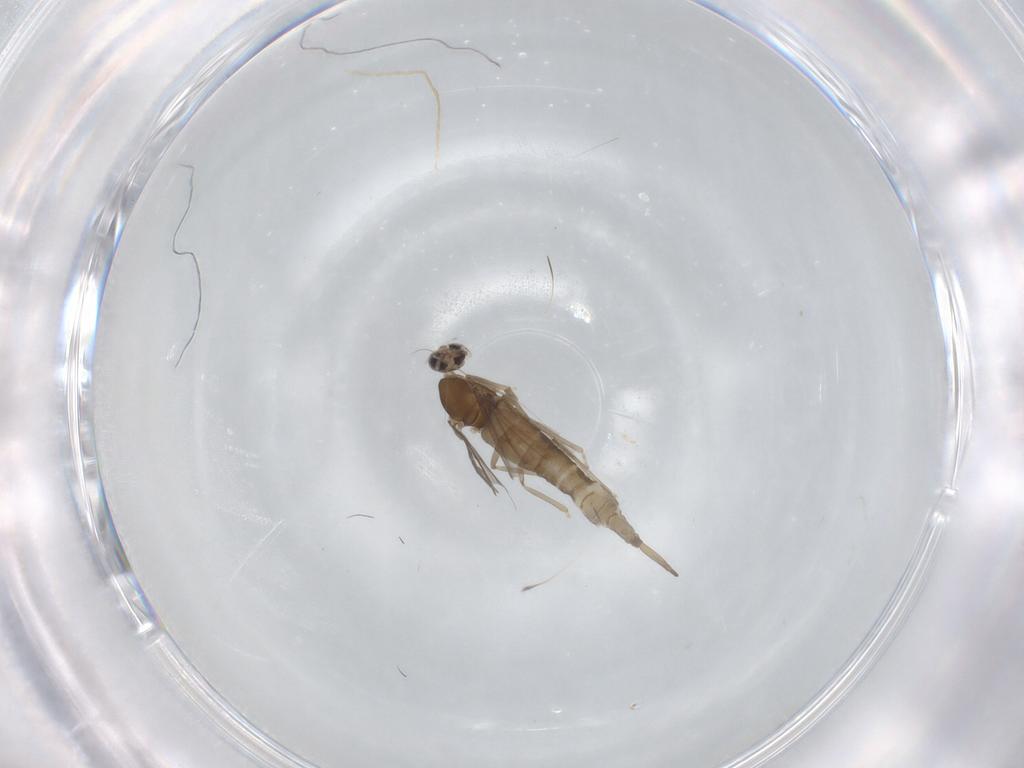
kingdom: Animalia
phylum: Arthropoda
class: Insecta
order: Diptera
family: Cecidomyiidae
